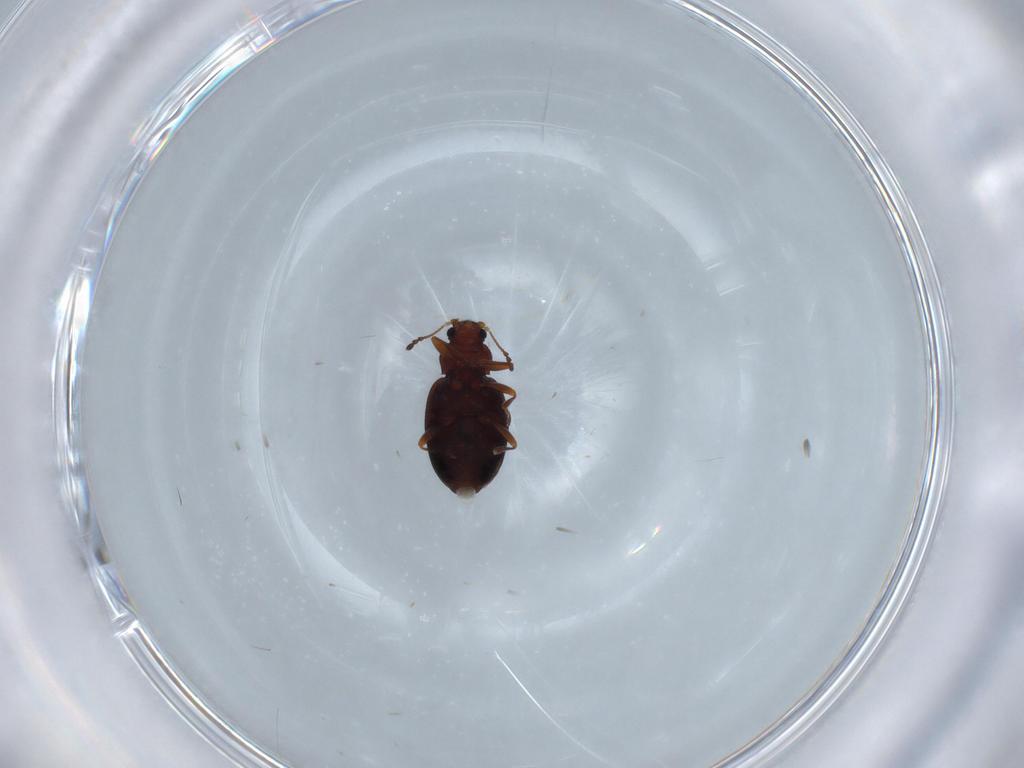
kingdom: Animalia
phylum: Arthropoda
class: Insecta
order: Coleoptera
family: Latridiidae
